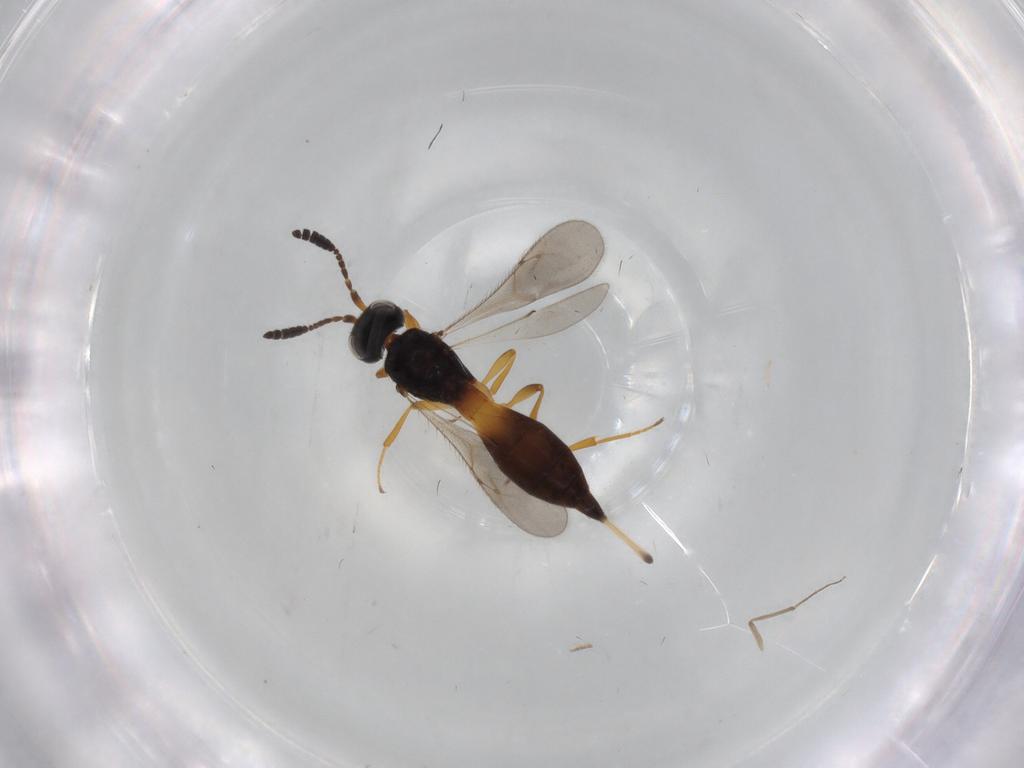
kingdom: Animalia
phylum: Arthropoda
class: Insecta
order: Hymenoptera
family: Scelionidae
